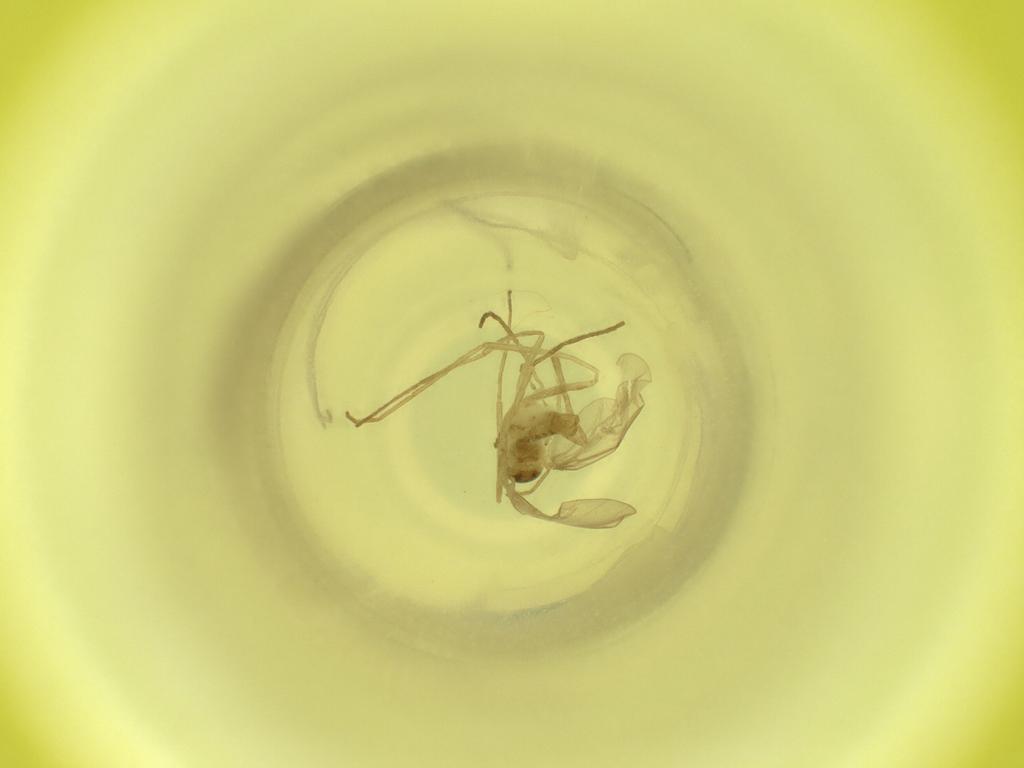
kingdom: Animalia
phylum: Arthropoda
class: Insecta
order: Diptera
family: Cecidomyiidae
